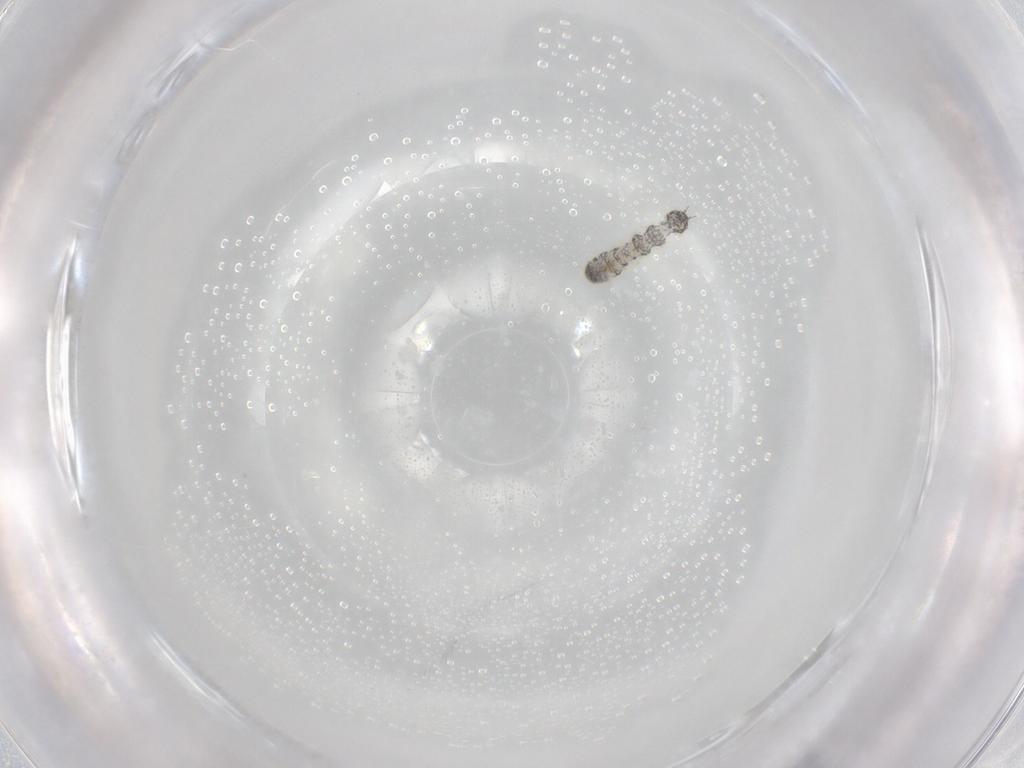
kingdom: Animalia
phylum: Arthropoda
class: Collembola
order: Entomobryomorpha
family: Isotomidae
